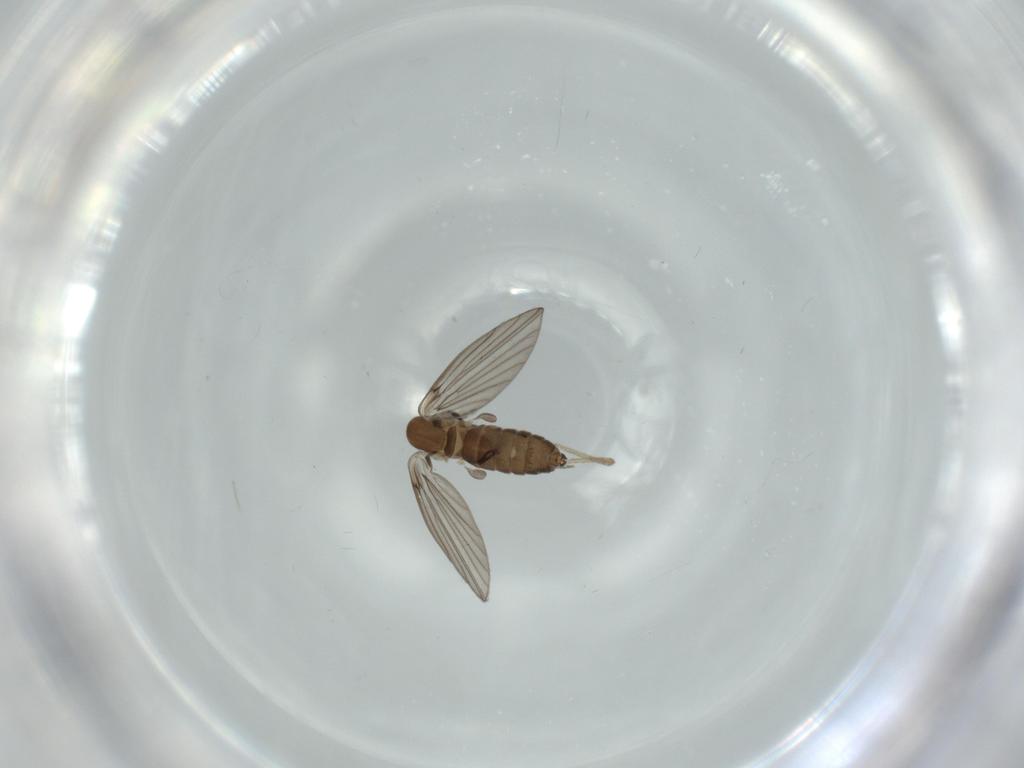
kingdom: Animalia
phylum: Arthropoda
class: Insecta
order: Diptera
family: Psychodidae
